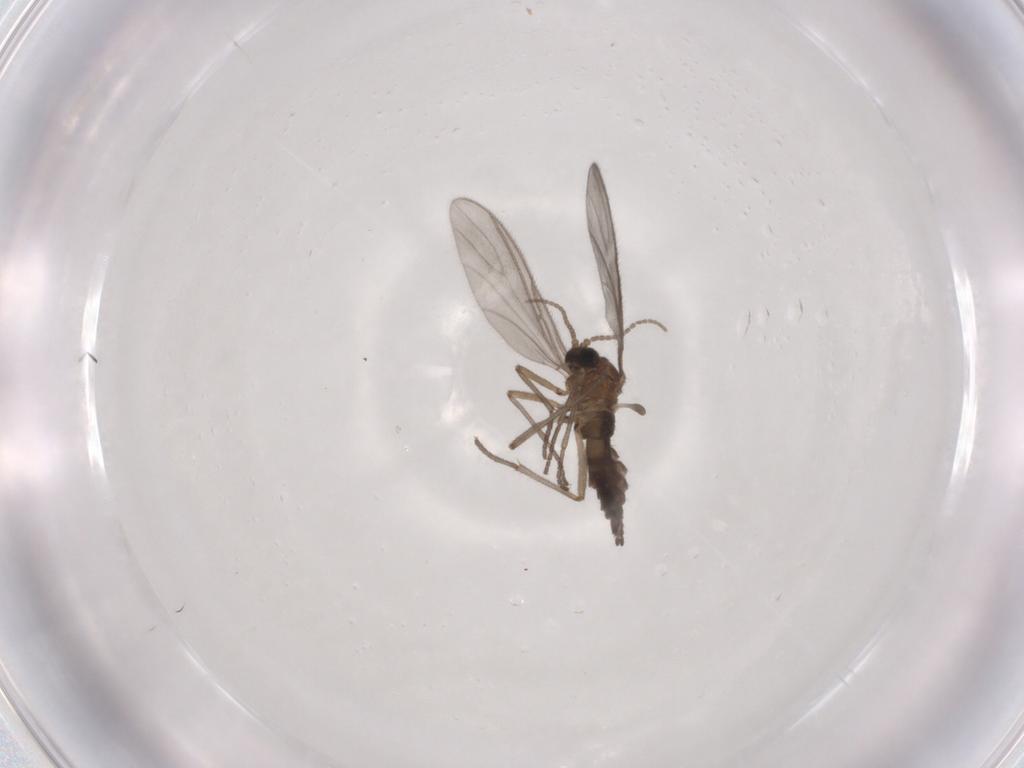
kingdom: Animalia
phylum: Arthropoda
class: Insecta
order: Diptera
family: Sciaridae
